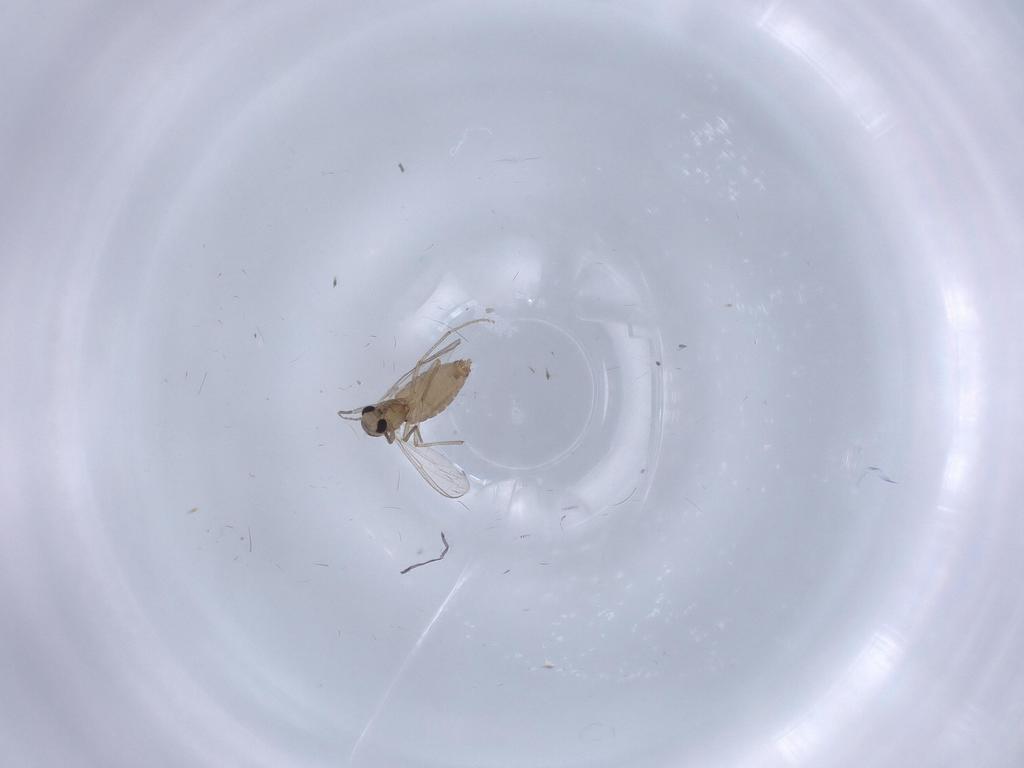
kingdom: Animalia
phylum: Arthropoda
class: Insecta
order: Diptera
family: Chironomidae
